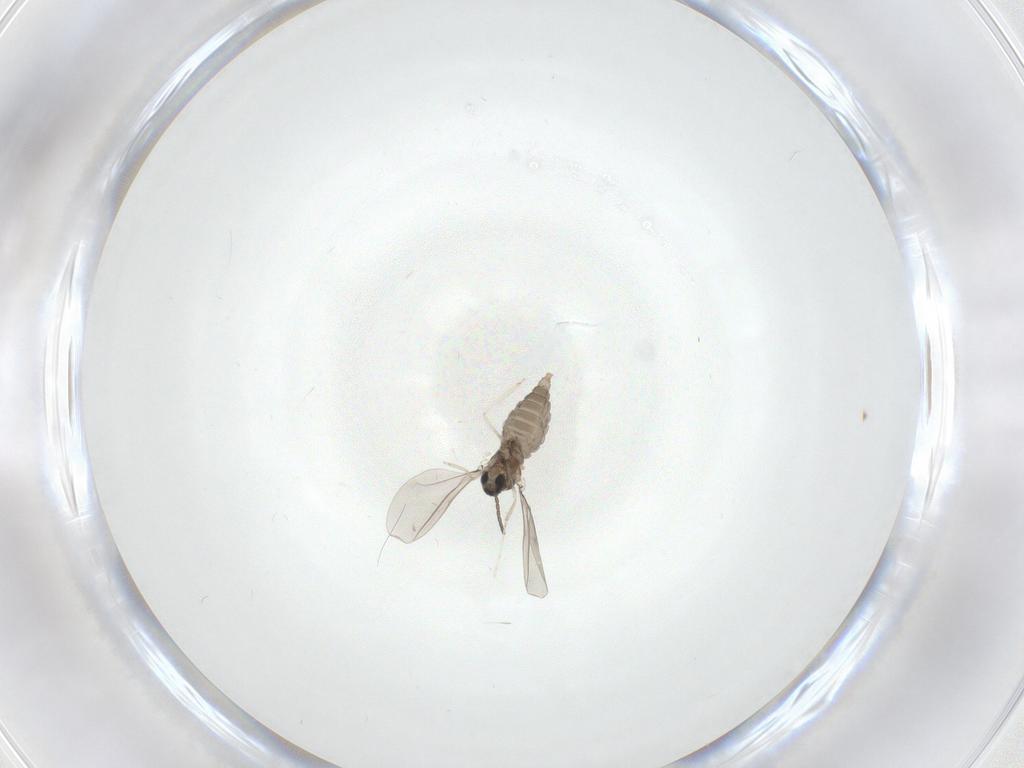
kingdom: Animalia
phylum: Arthropoda
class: Insecta
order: Diptera
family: Cecidomyiidae
